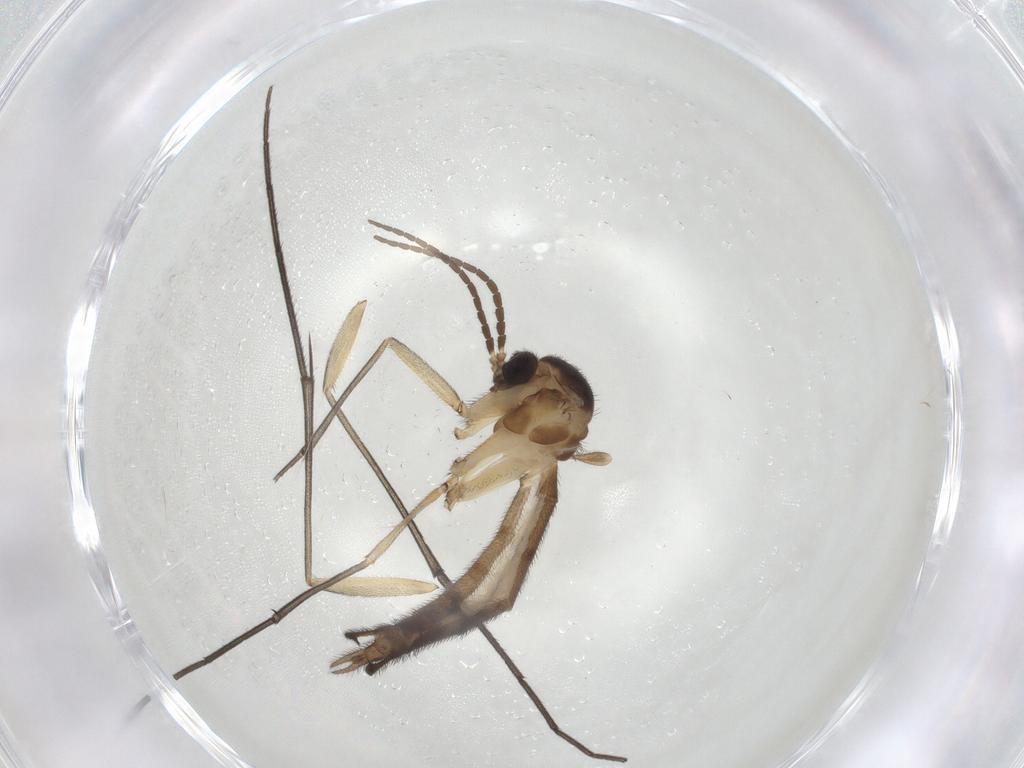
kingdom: Animalia
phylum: Arthropoda
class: Insecta
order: Diptera
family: Keroplatidae
